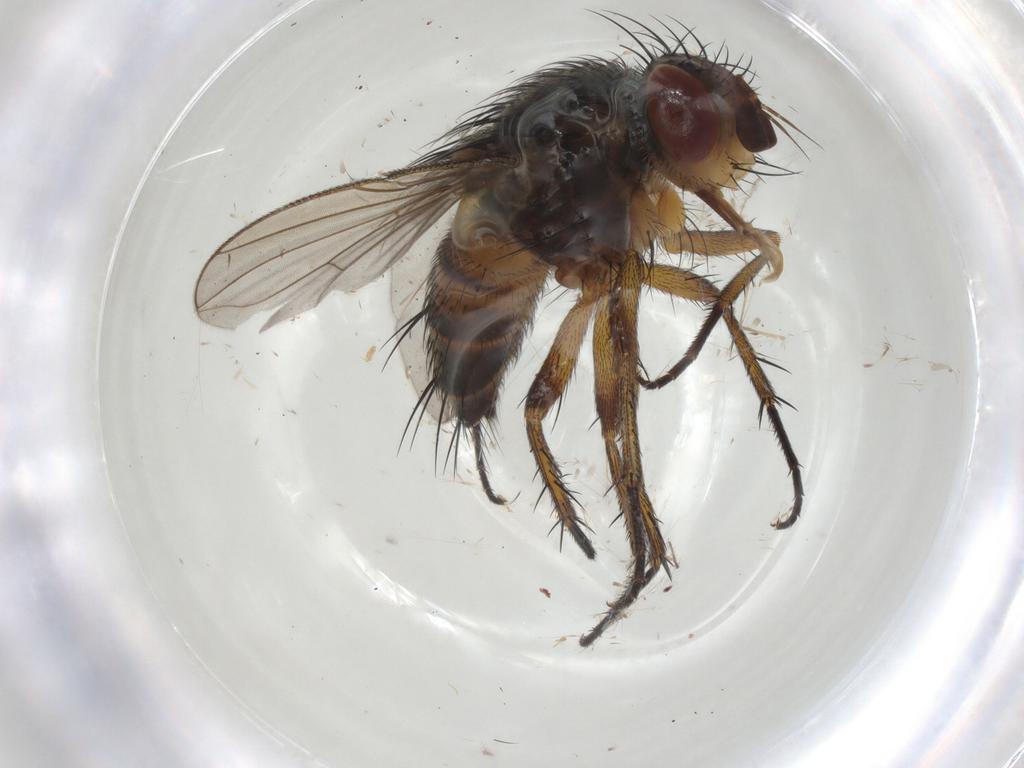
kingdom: Animalia
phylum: Arthropoda
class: Insecta
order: Diptera
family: Tachinidae
